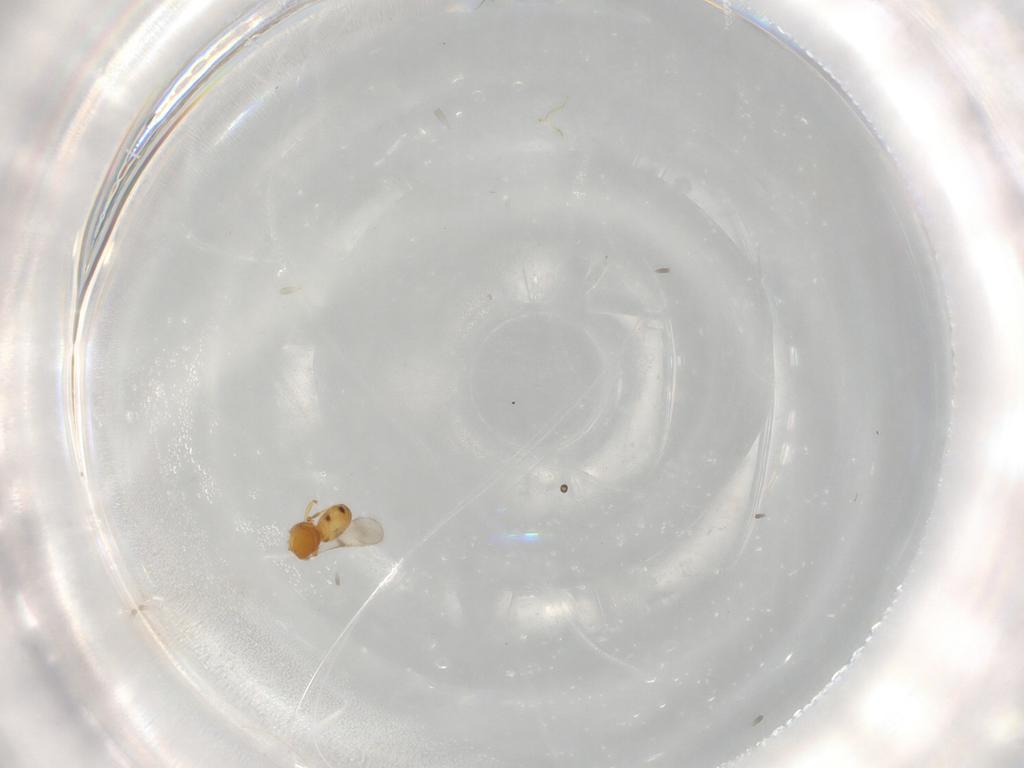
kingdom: Animalia
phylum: Arthropoda
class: Insecta
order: Hymenoptera
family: Scelionidae
